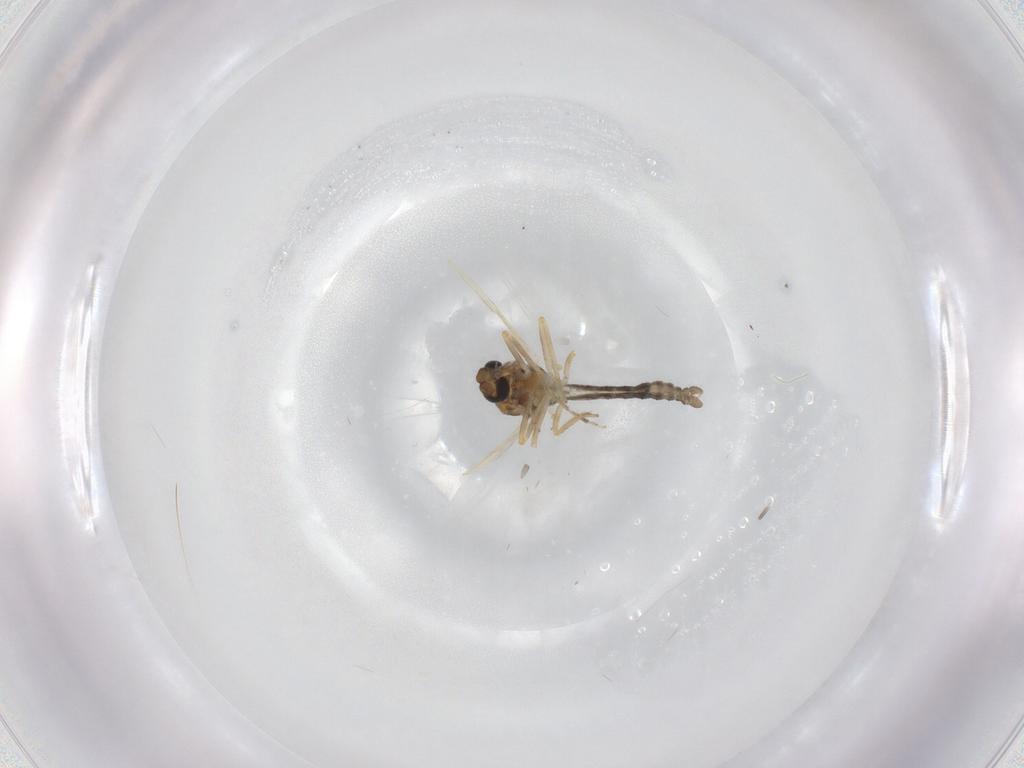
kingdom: Animalia
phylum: Arthropoda
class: Insecta
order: Diptera
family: Ceratopogonidae
